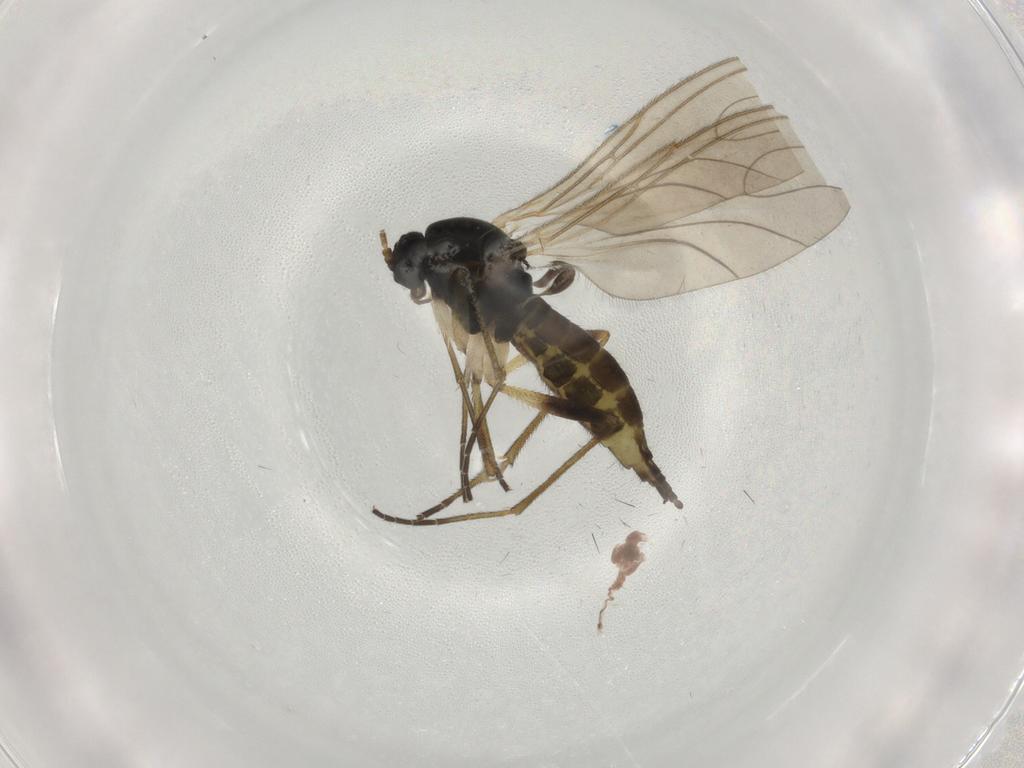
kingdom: Animalia
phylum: Arthropoda
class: Insecta
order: Diptera
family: Sciaridae
